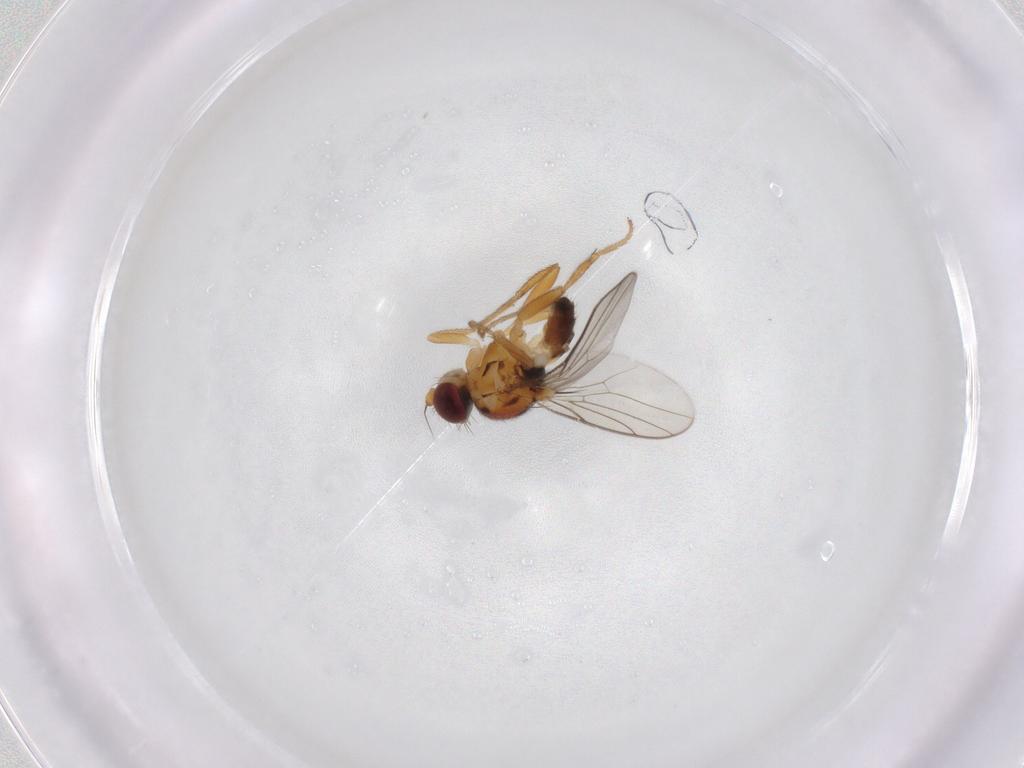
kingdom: Animalia
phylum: Arthropoda
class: Insecta
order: Diptera
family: Chloropidae
